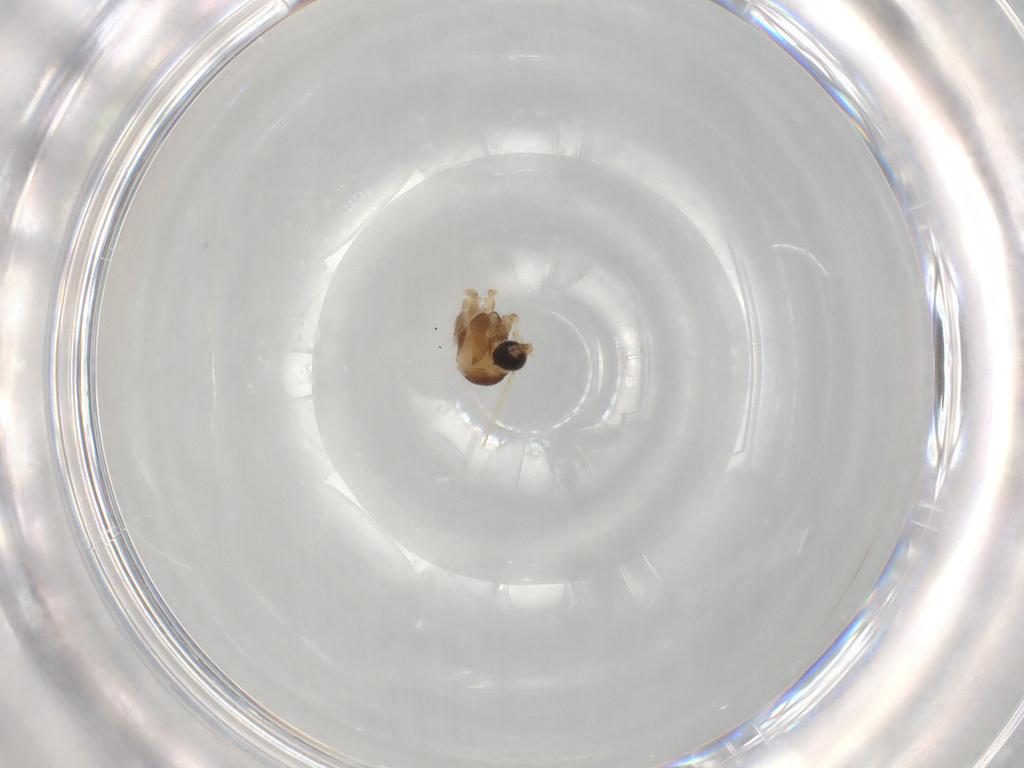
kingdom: Animalia
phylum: Arthropoda
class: Insecta
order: Diptera
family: Cecidomyiidae
